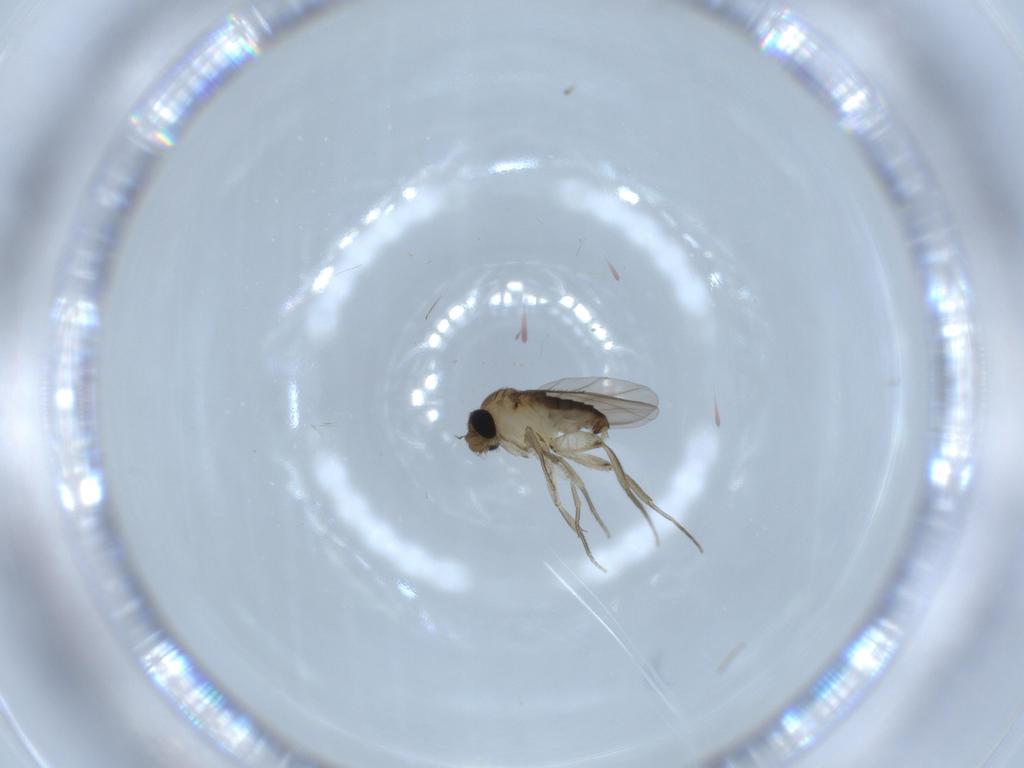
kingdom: Animalia
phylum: Arthropoda
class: Insecta
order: Diptera
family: Phoridae
